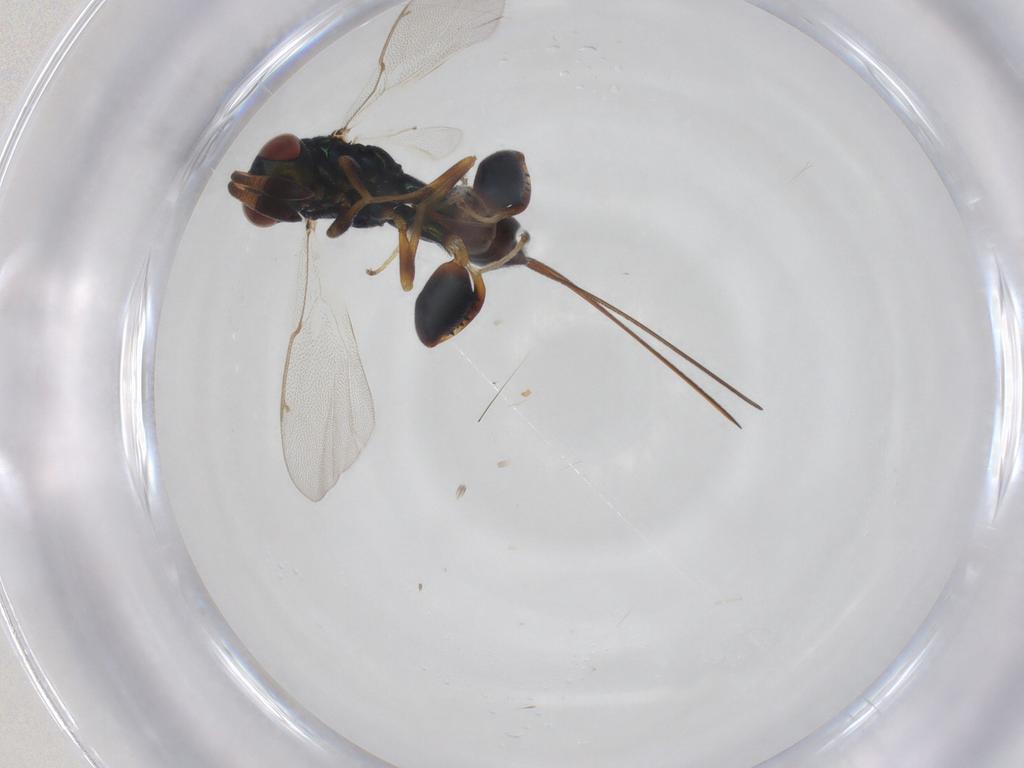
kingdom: Animalia
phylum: Arthropoda
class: Insecta
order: Hymenoptera
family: Torymidae
